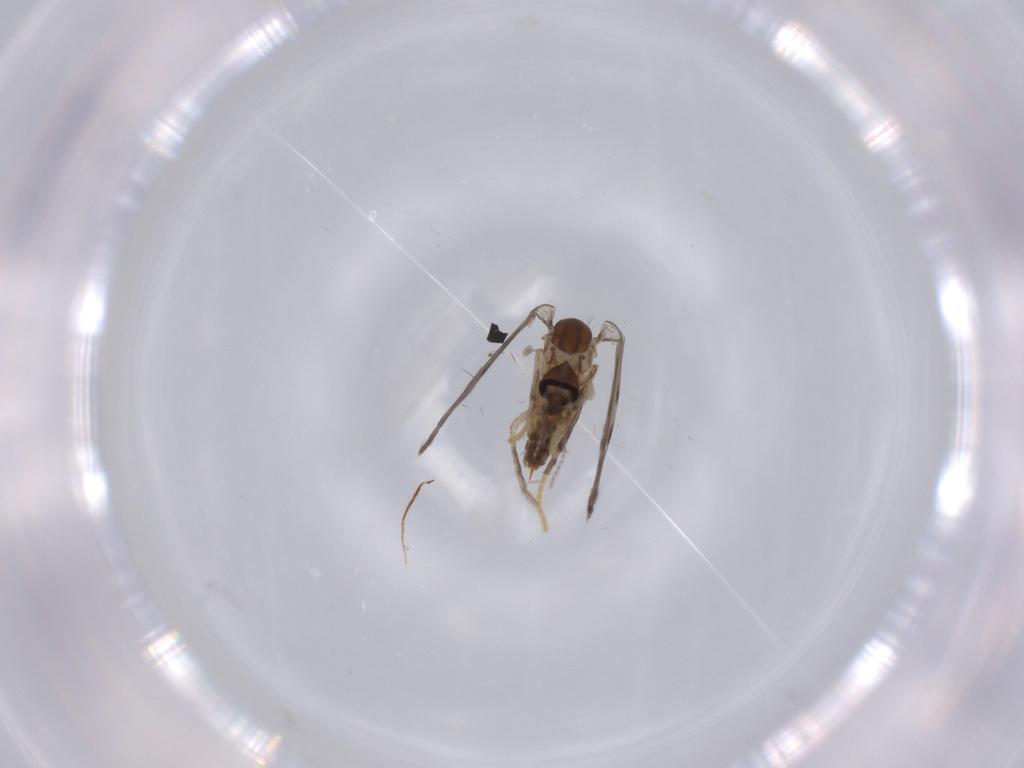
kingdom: Animalia
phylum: Arthropoda
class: Insecta
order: Diptera
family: Psychodidae
